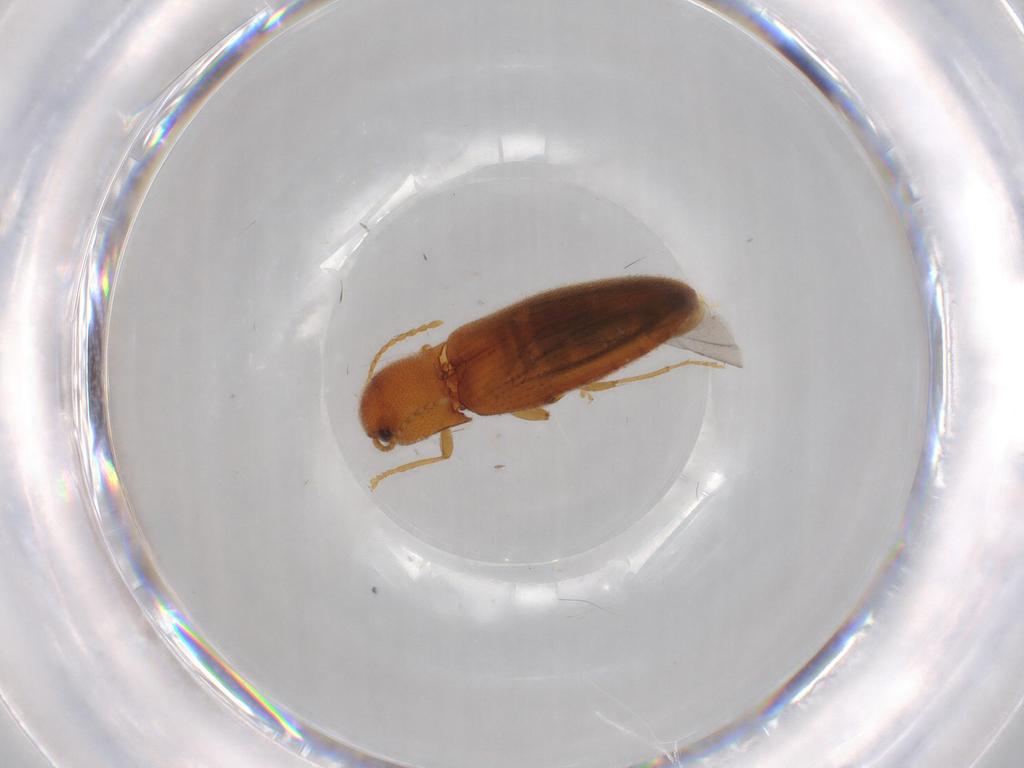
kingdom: Animalia
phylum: Arthropoda
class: Insecta
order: Coleoptera
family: Elateridae
